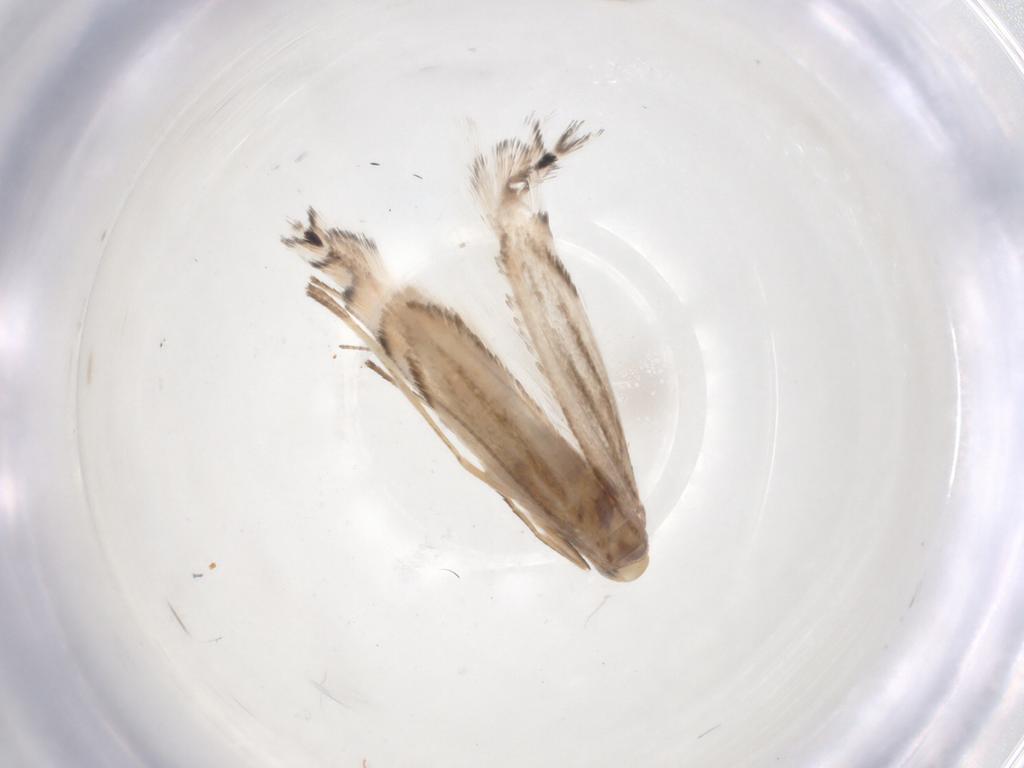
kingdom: Animalia
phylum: Arthropoda
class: Insecta
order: Lepidoptera
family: Gracillariidae
